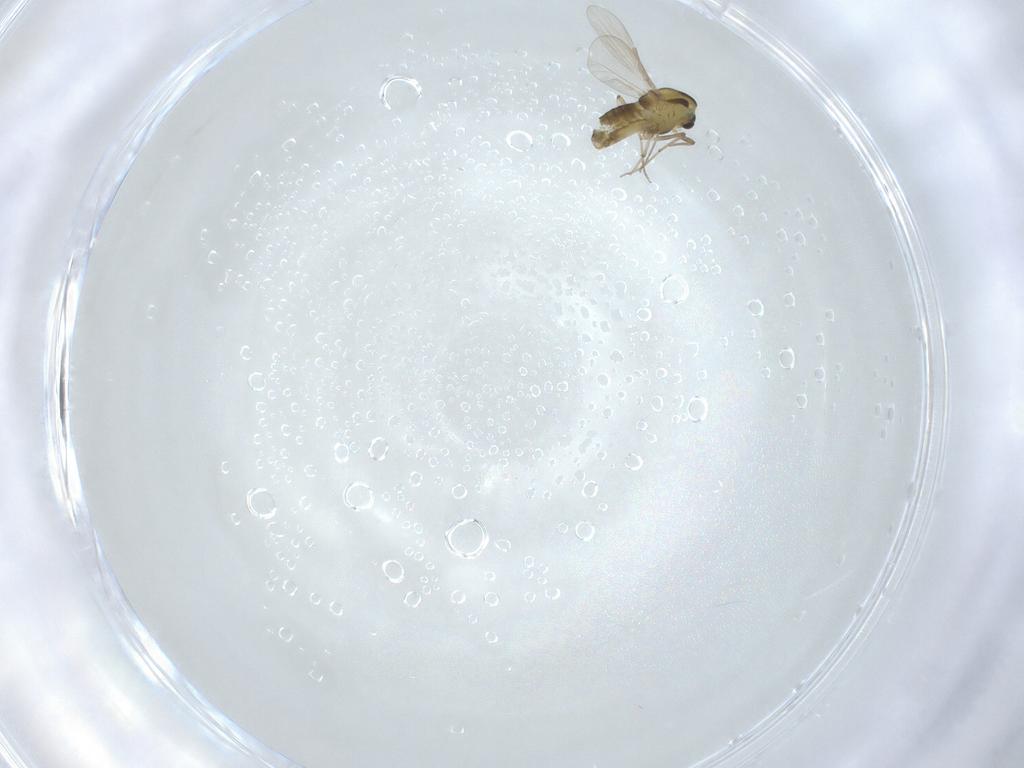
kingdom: Animalia
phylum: Arthropoda
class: Insecta
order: Diptera
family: Chironomidae
